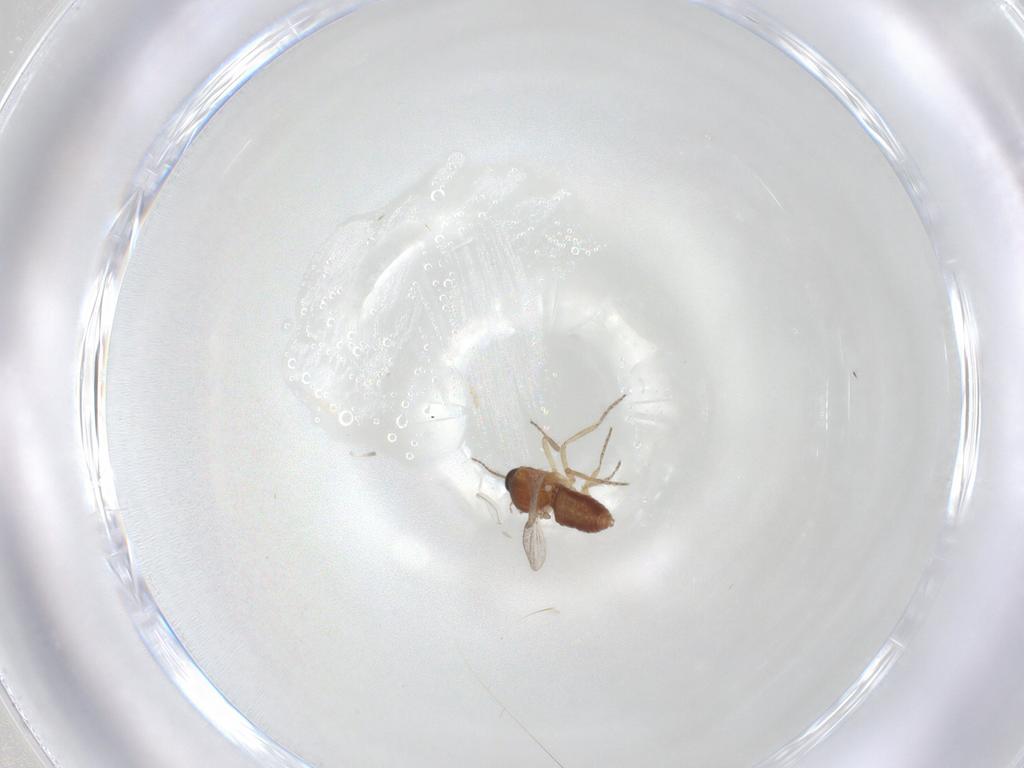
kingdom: Animalia
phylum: Arthropoda
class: Insecta
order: Diptera
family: Ceratopogonidae
